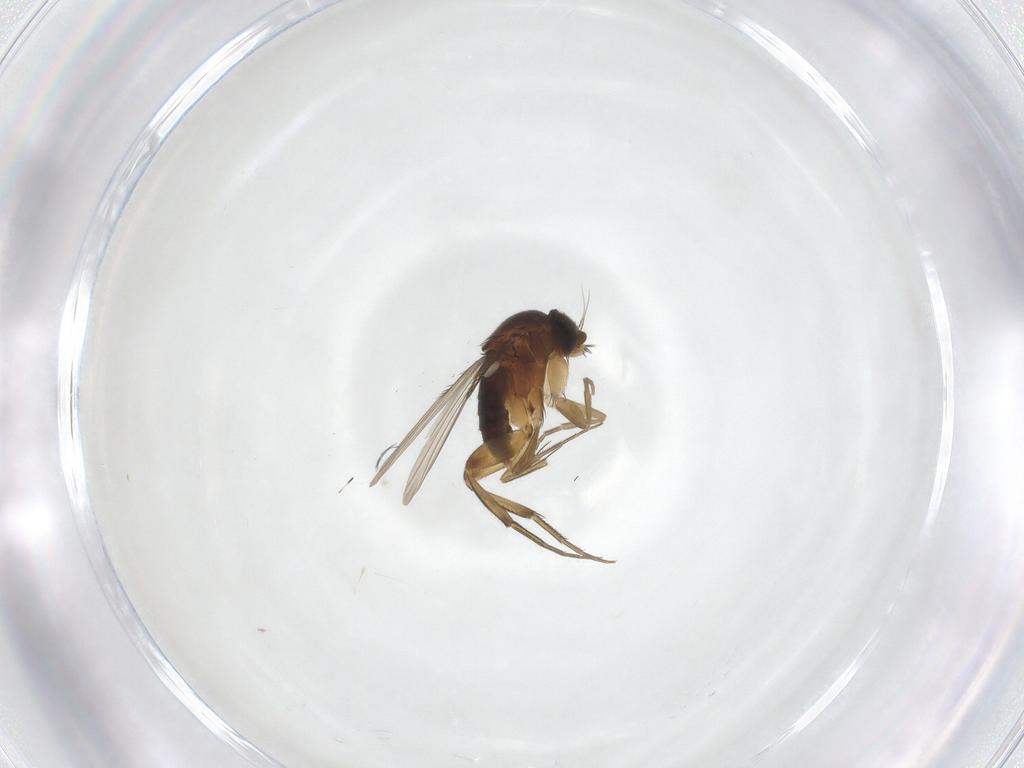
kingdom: Animalia
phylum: Arthropoda
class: Insecta
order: Diptera
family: Phoridae
